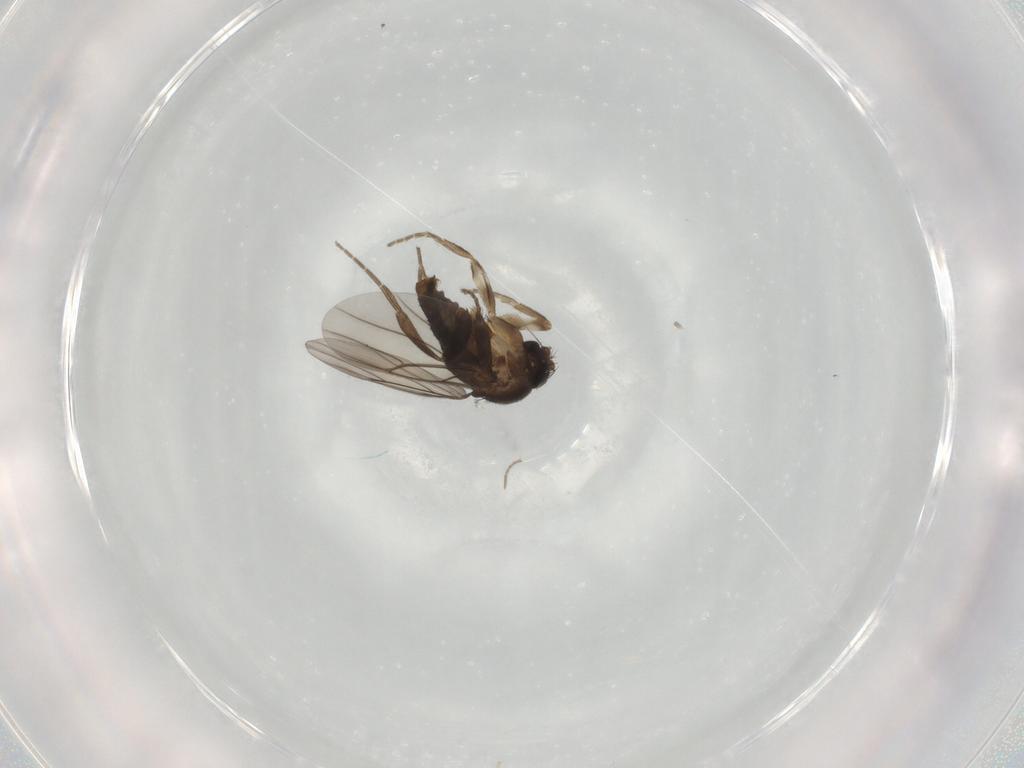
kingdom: Animalia
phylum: Arthropoda
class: Insecta
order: Diptera
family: Phoridae
